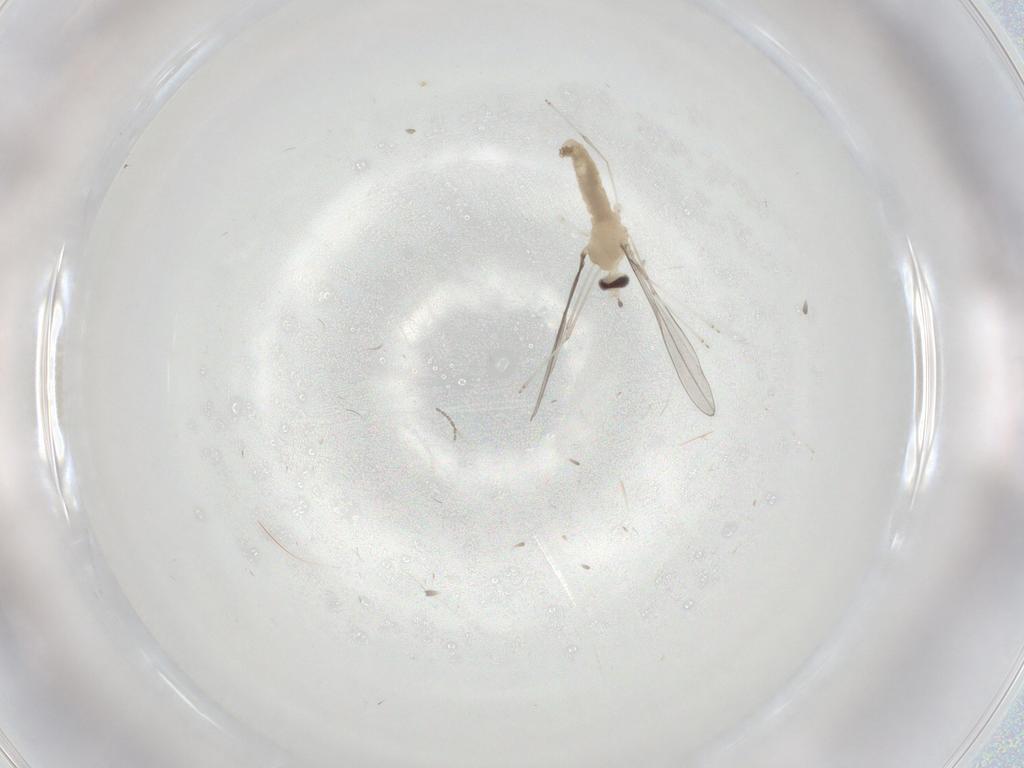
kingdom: Animalia
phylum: Arthropoda
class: Insecta
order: Diptera
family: Cecidomyiidae
